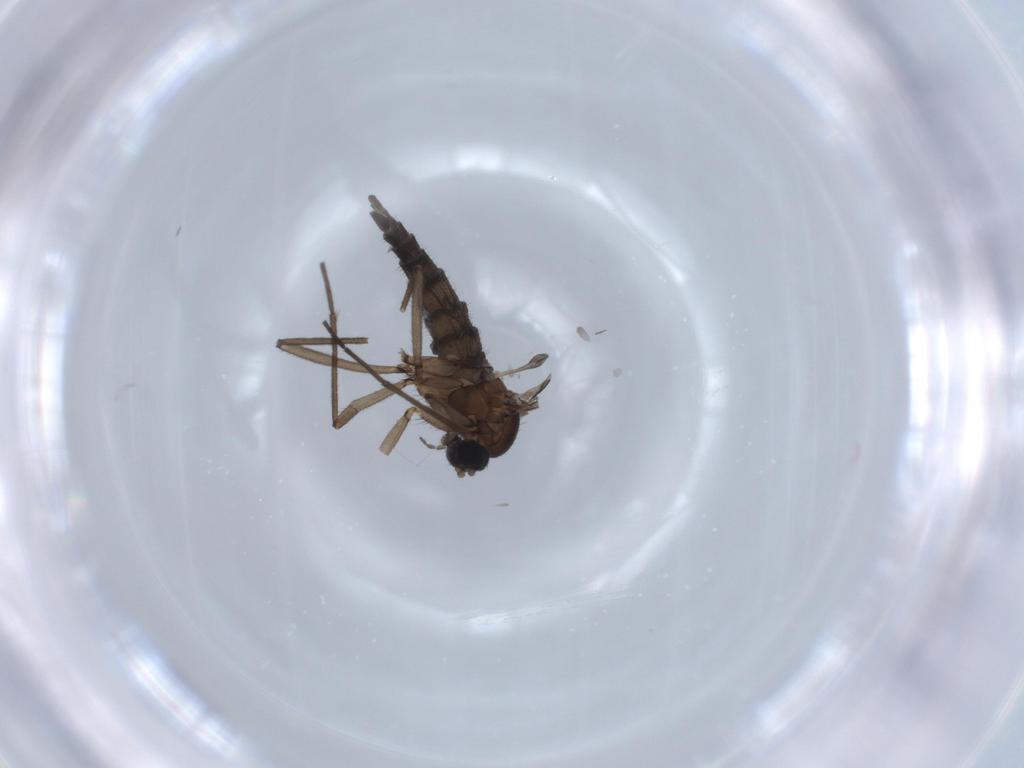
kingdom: Animalia
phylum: Arthropoda
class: Insecta
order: Diptera
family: Sciaridae
